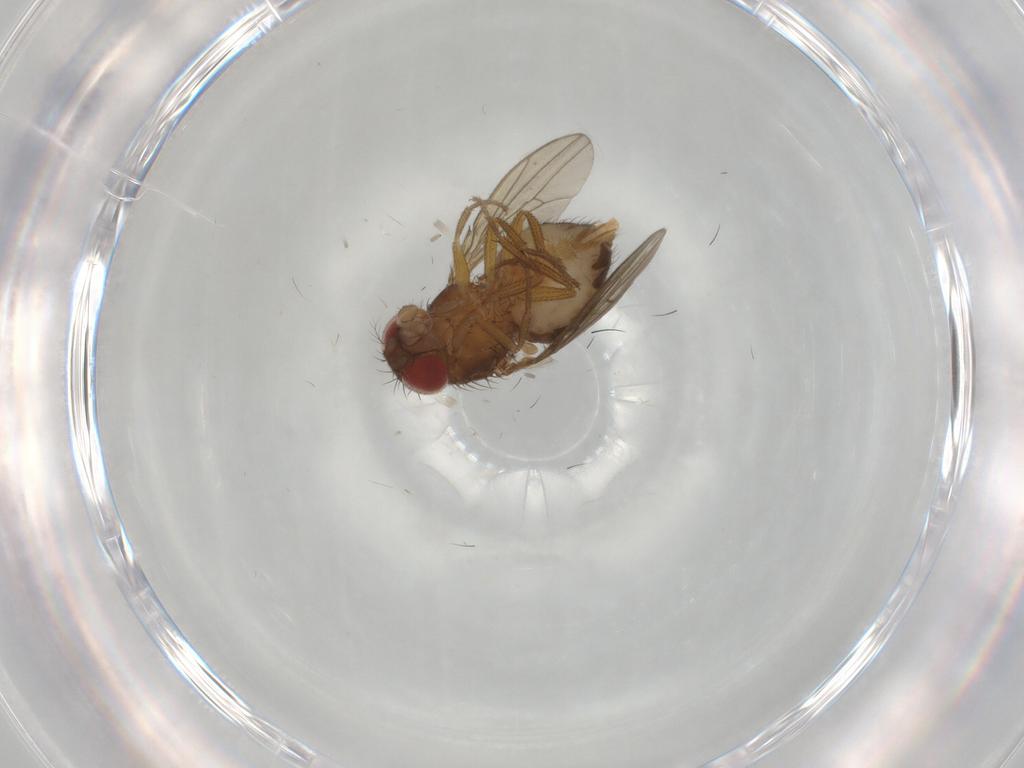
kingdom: Animalia
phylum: Arthropoda
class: Insecta
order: Diptera
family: Drosophilidae
